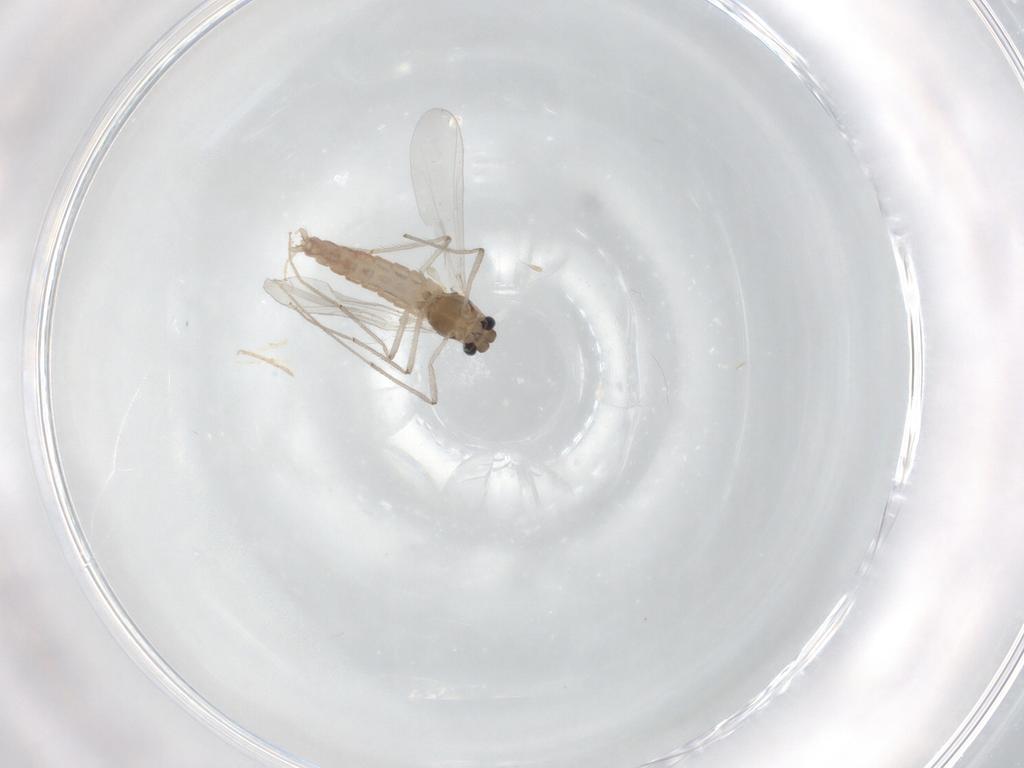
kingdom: Animalia
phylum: Arthropoda
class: Insecta
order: Diptera
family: Chironomidae
